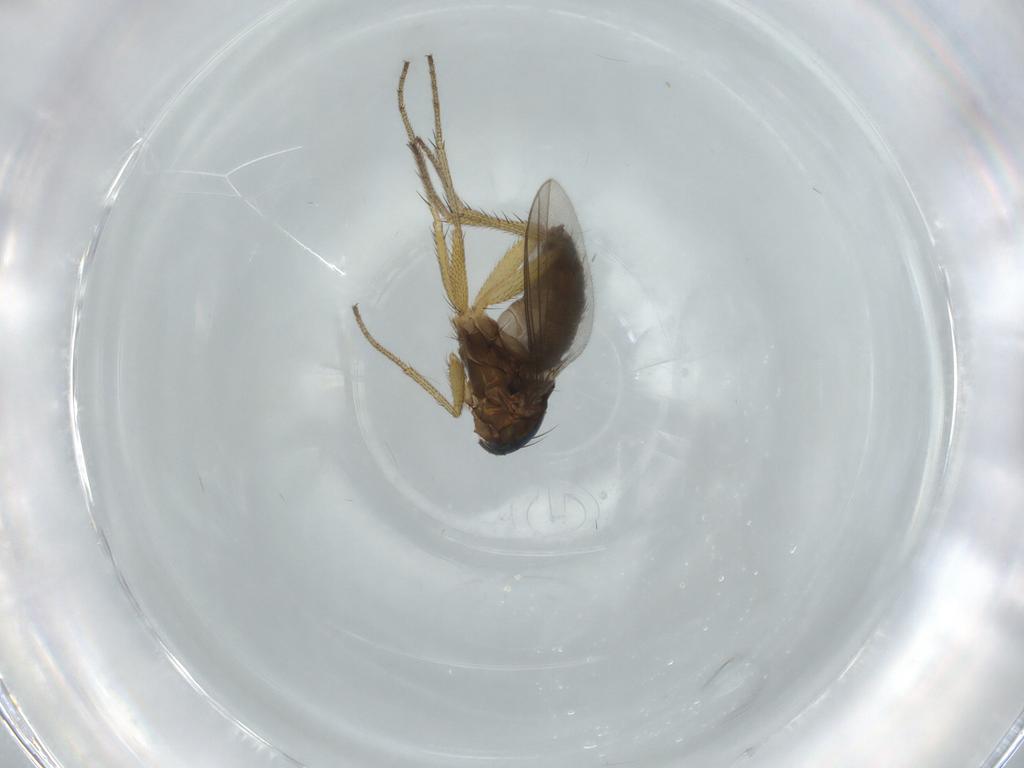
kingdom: Animalia
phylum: Arthropoda
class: Insecta
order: Diptera
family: Dolichopodidae
